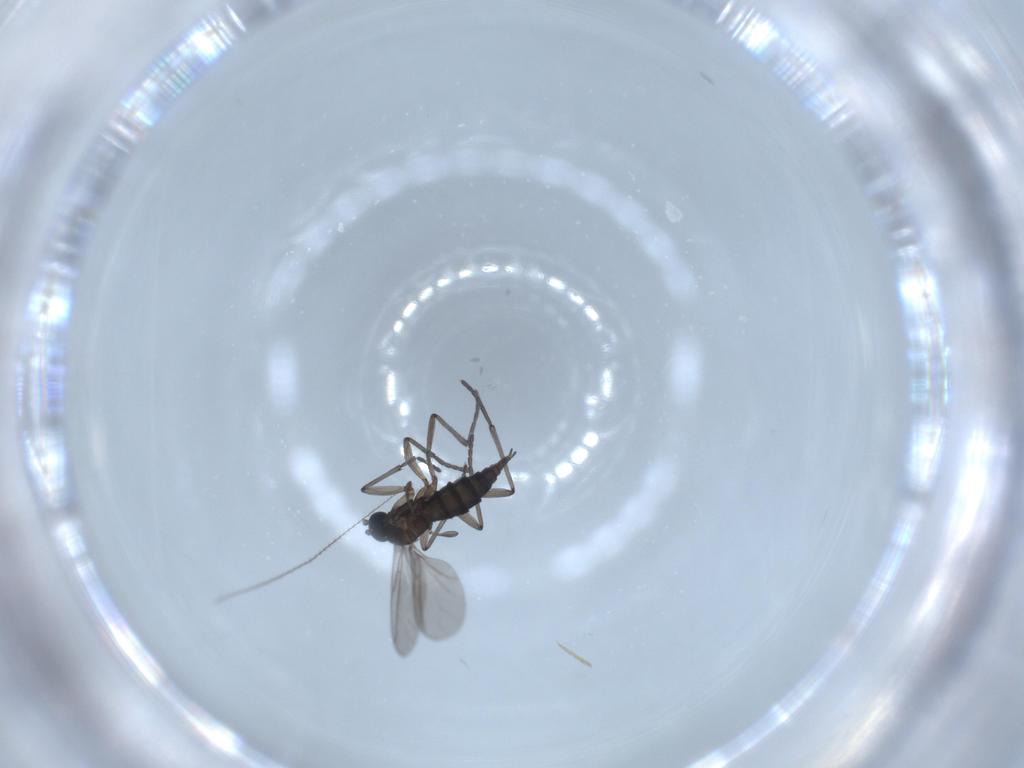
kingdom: Animalia
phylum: Arthropoda
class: Insecta
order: Diptera
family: Sciaridae
